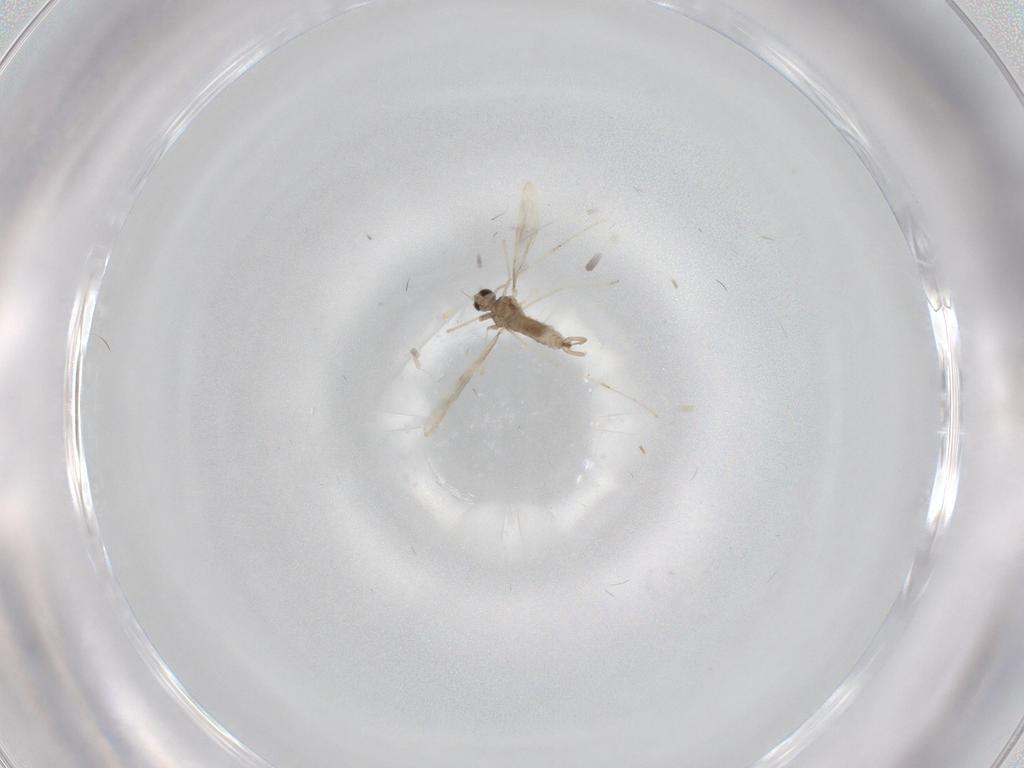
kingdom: Animalia
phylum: Arthropoda
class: Insecta
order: Diptera
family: Cecidomyiidae
